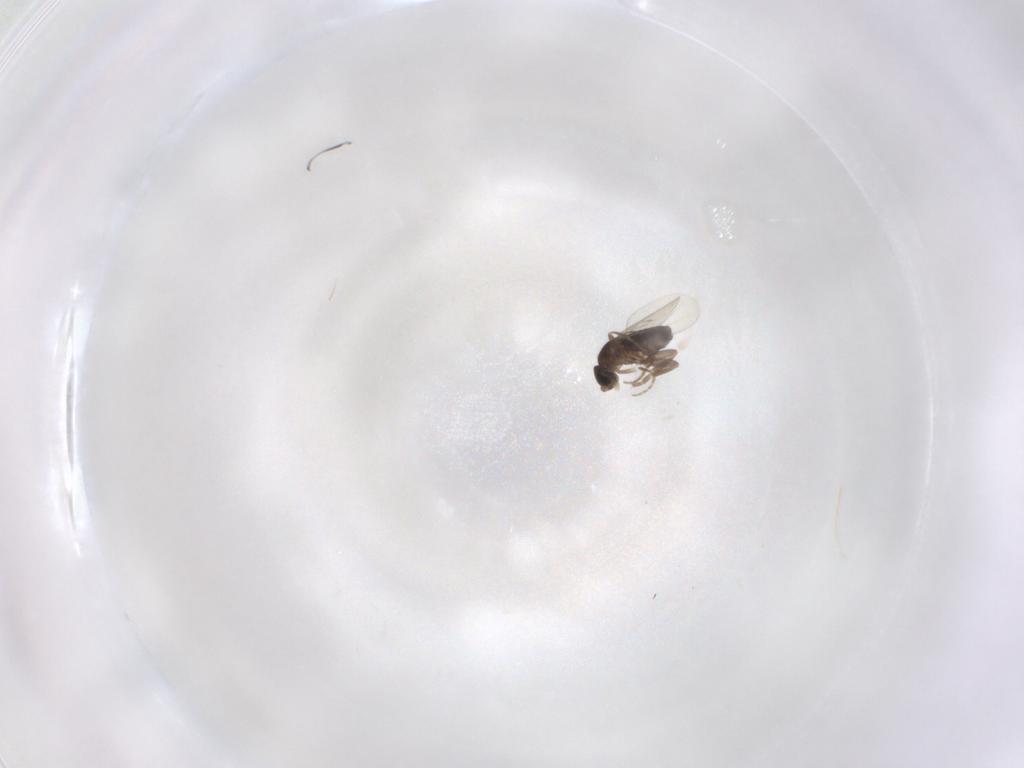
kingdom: Animalia
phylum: Arthropoda
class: Insecta
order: Diptera
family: Phoridae
